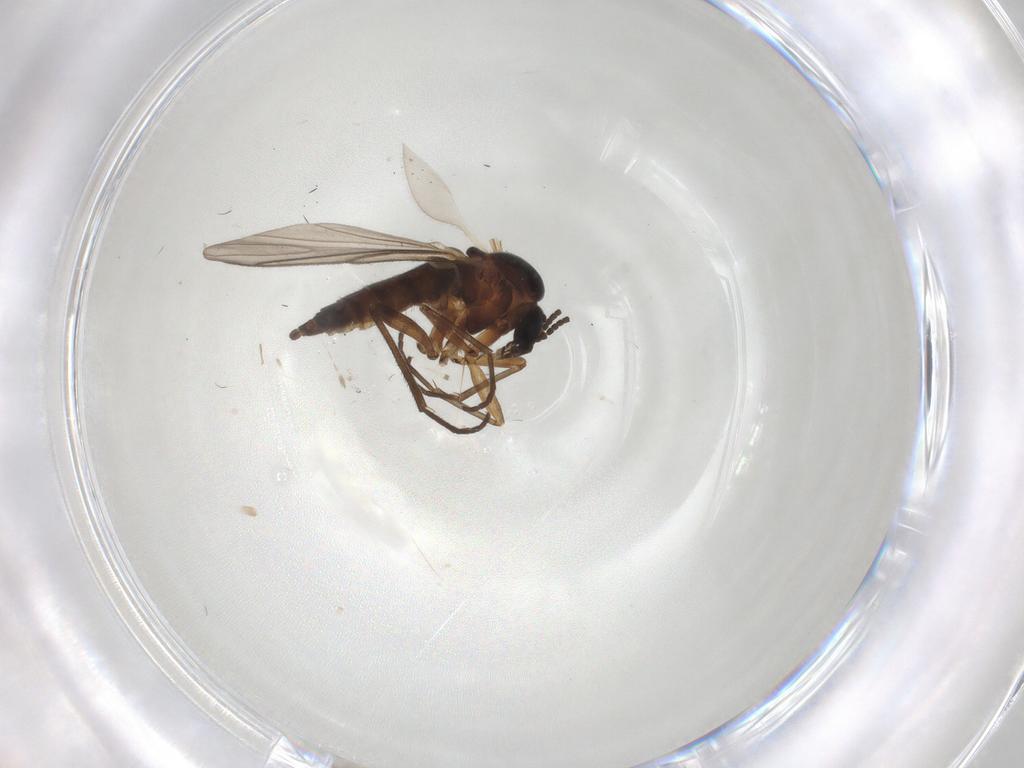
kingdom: Animalia
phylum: Arthropoda
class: Insecta
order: Diptera
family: Sciaridae
